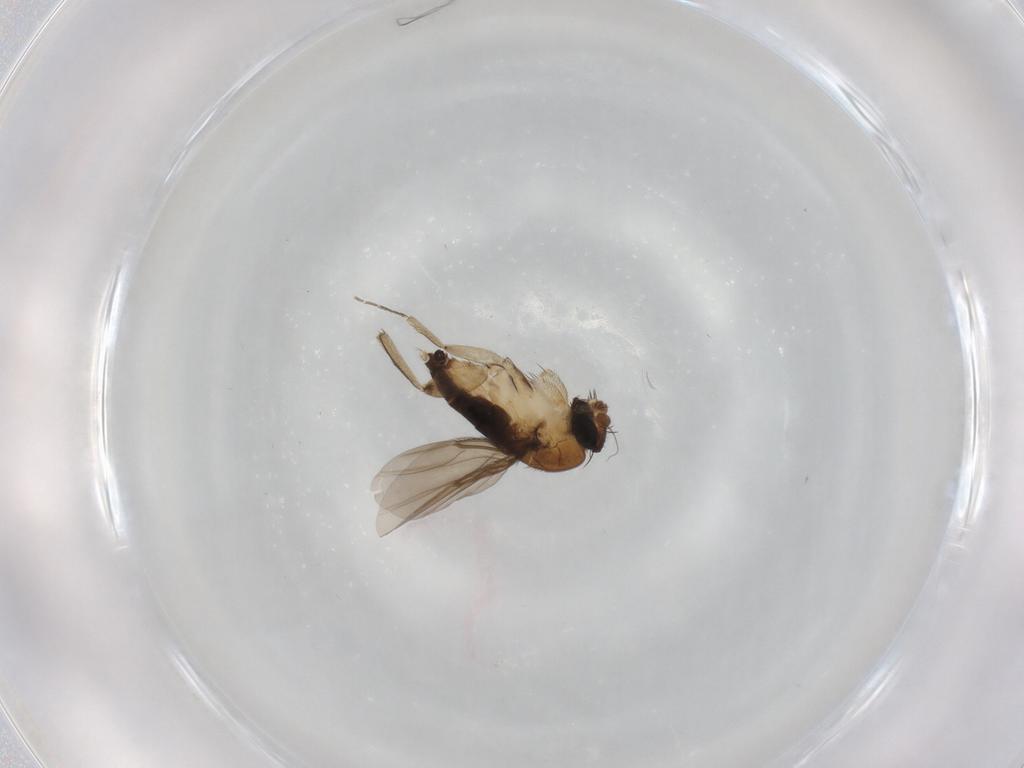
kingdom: Animalia
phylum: Arthropoda
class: Insecta
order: Diptera
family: Phoridae
